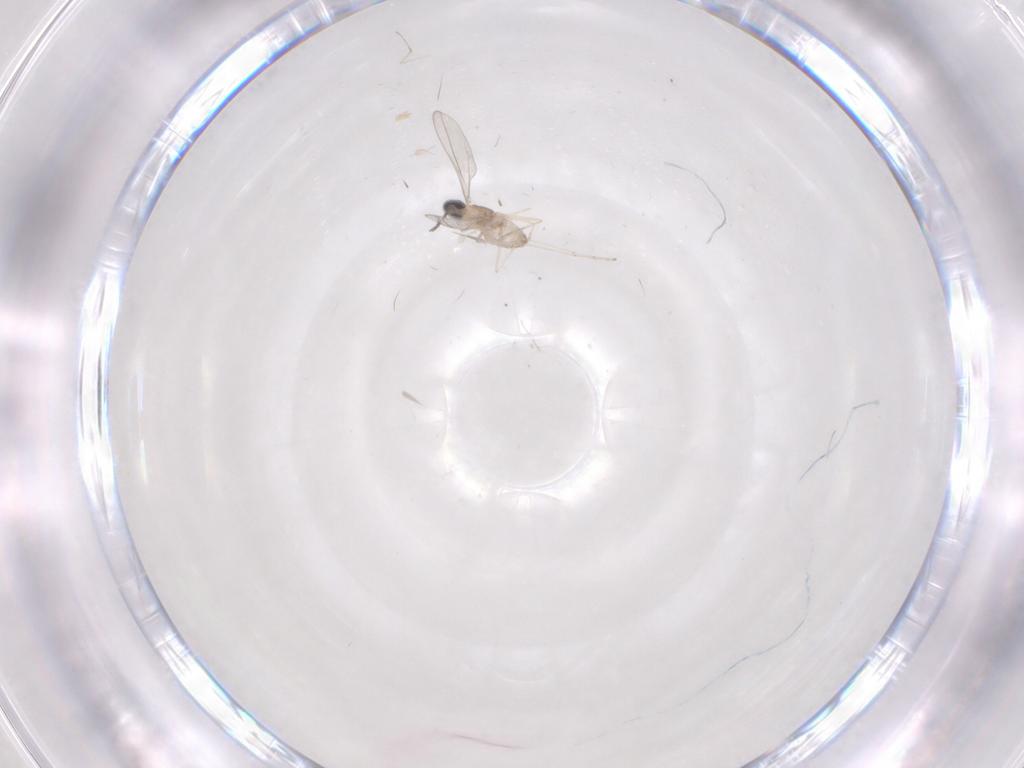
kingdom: Animalia
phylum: Arthropoda
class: Insecta
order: Diptera
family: Cecidomyiidae
